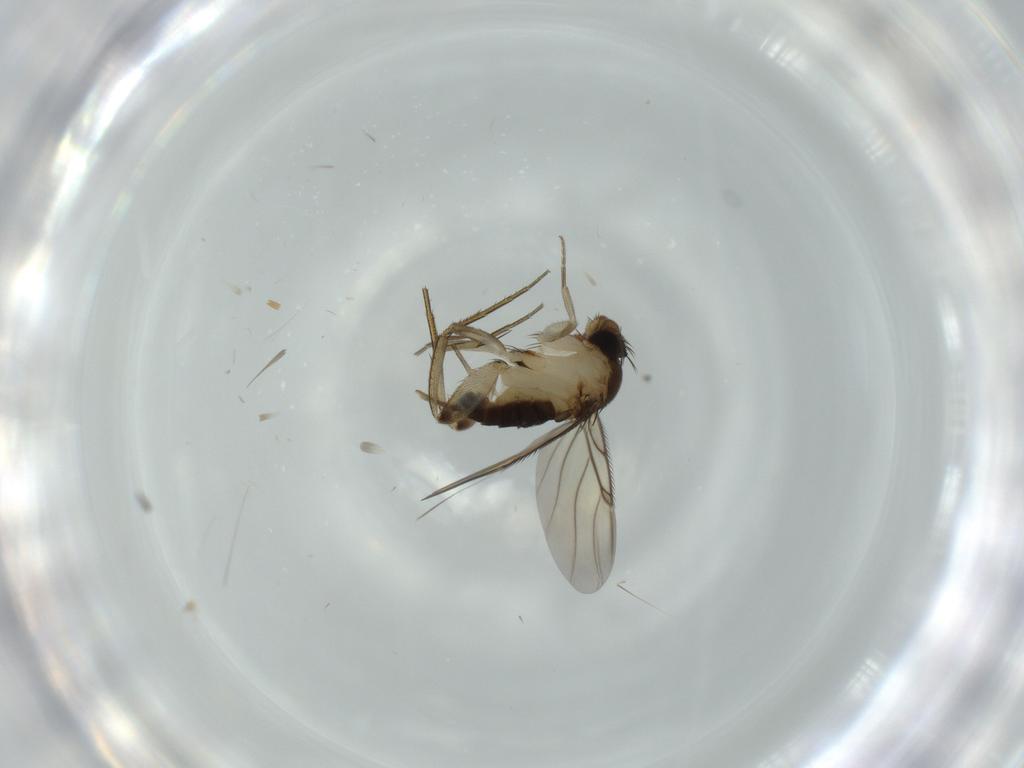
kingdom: Animalia
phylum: Arthropoda
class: Insecta
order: Diptera
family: Phoridae
